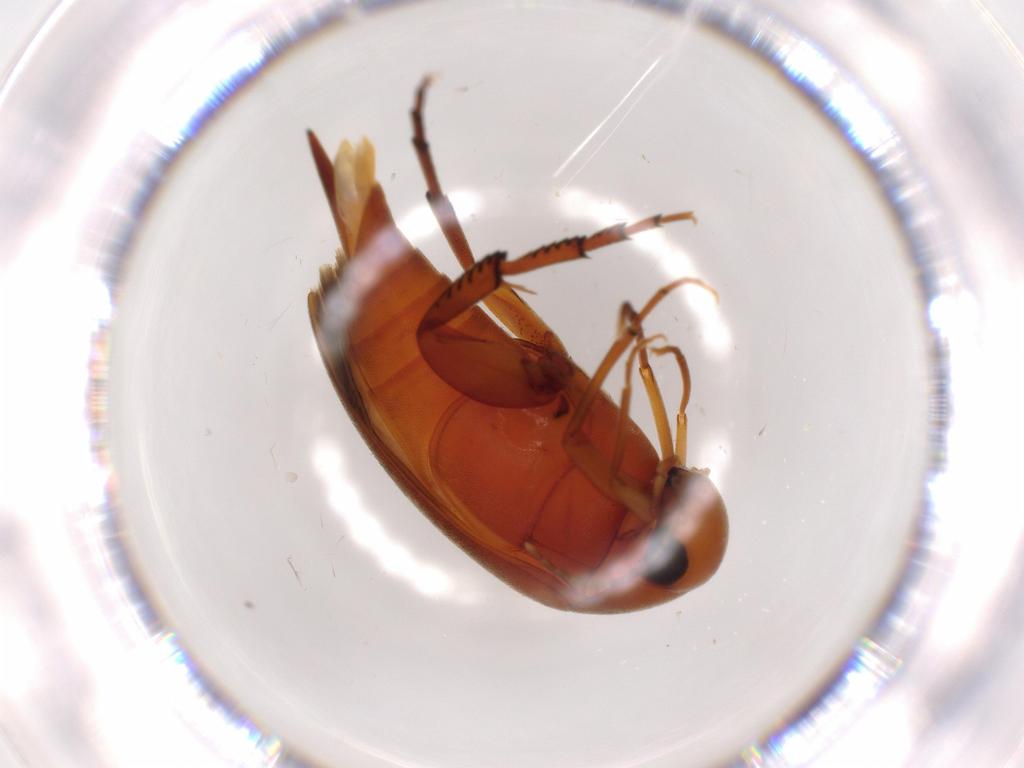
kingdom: Animalia
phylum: Arthropoda
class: Insecta
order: Coleoptera
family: Mordellidae
